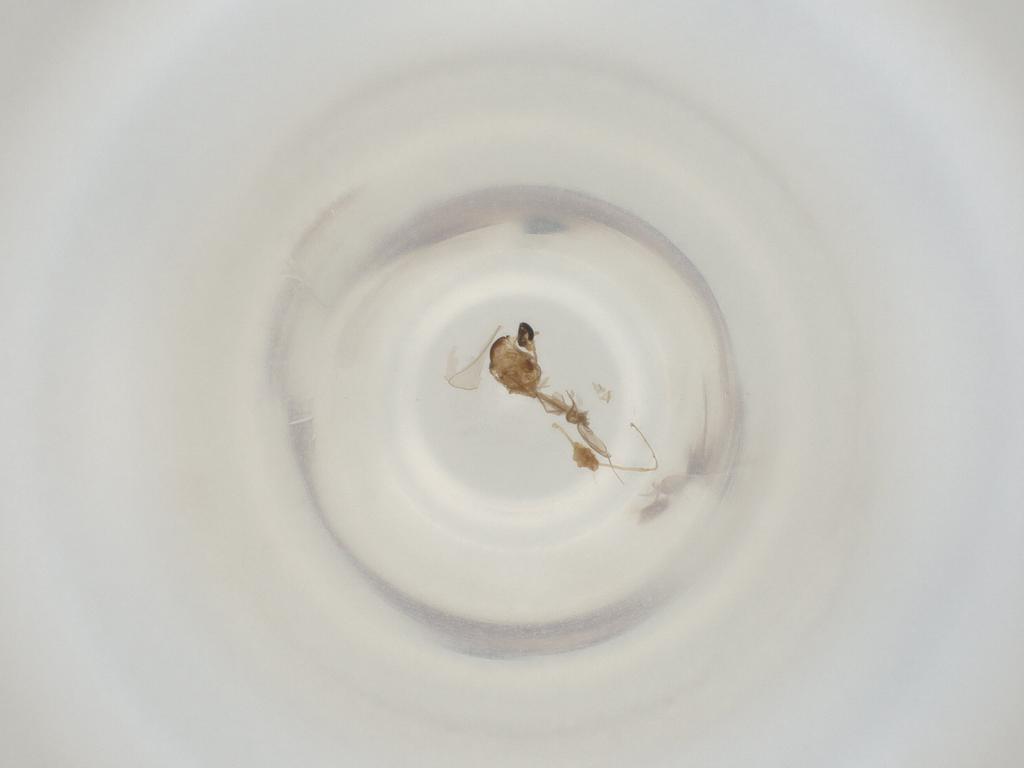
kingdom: Animalia
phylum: Arthropoda
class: Insecta
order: Diptera
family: Cecidomyiidae
